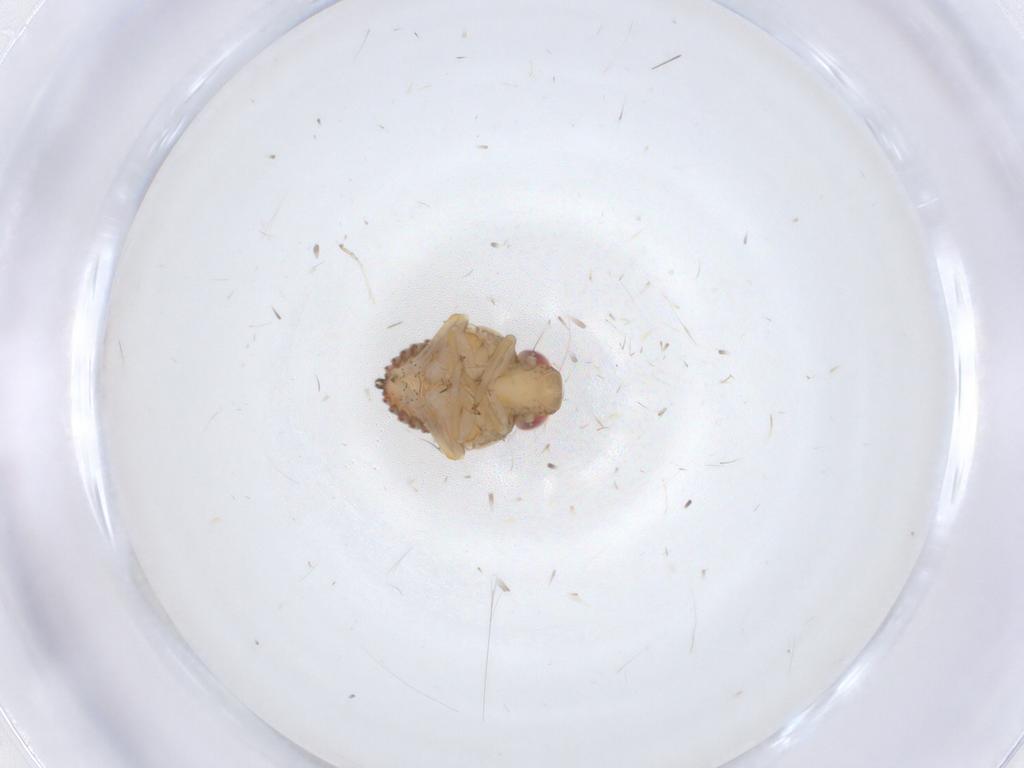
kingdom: Animalia
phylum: Arthropoda
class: Insecta
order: Hemiptera
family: Issidae
